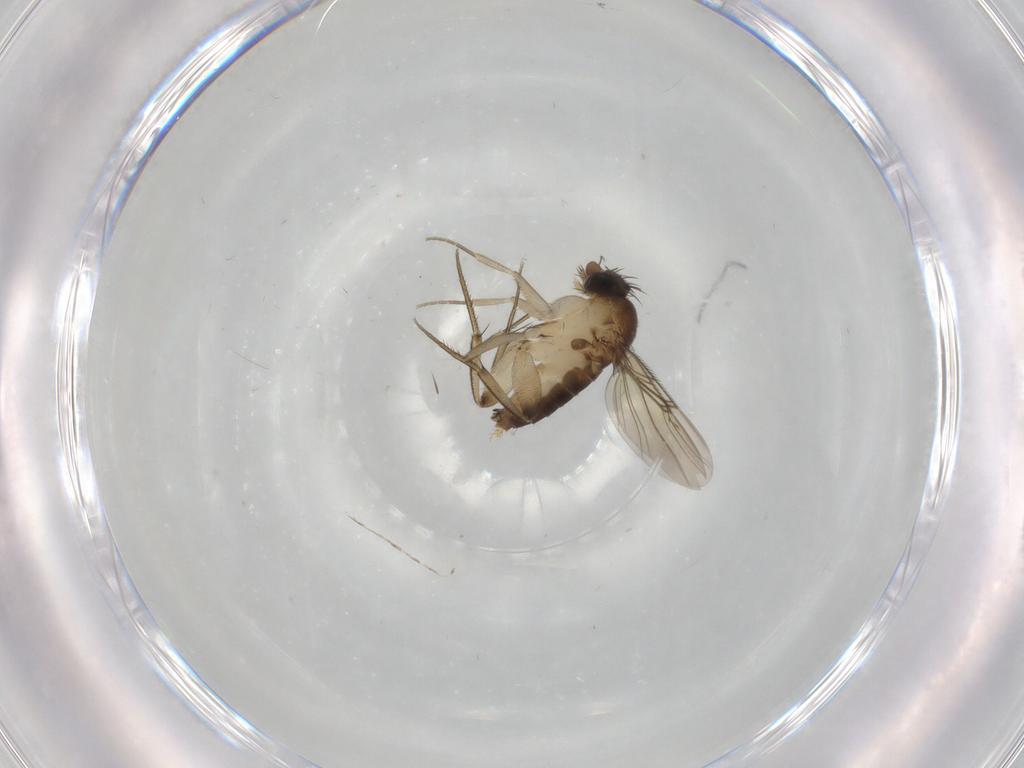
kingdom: Animalia
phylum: Arthropoda
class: Insecta
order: Diptera
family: Phoridae
